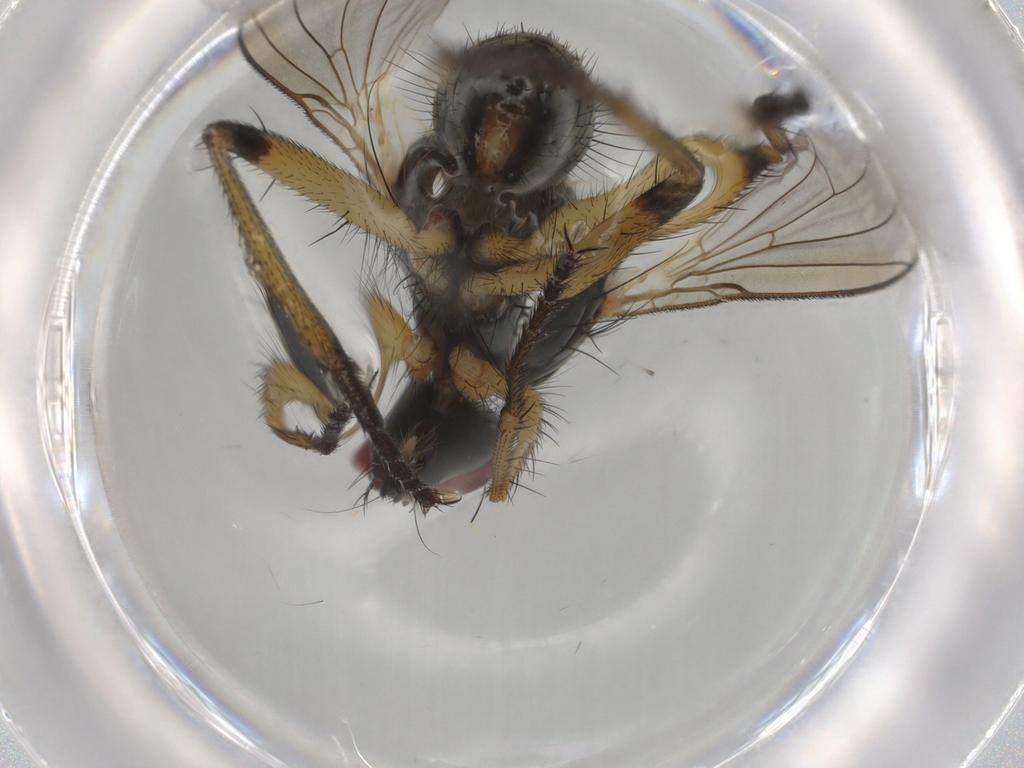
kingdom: Animalia
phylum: Arthropoda
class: Insecta
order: Diptera
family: Muscidae
